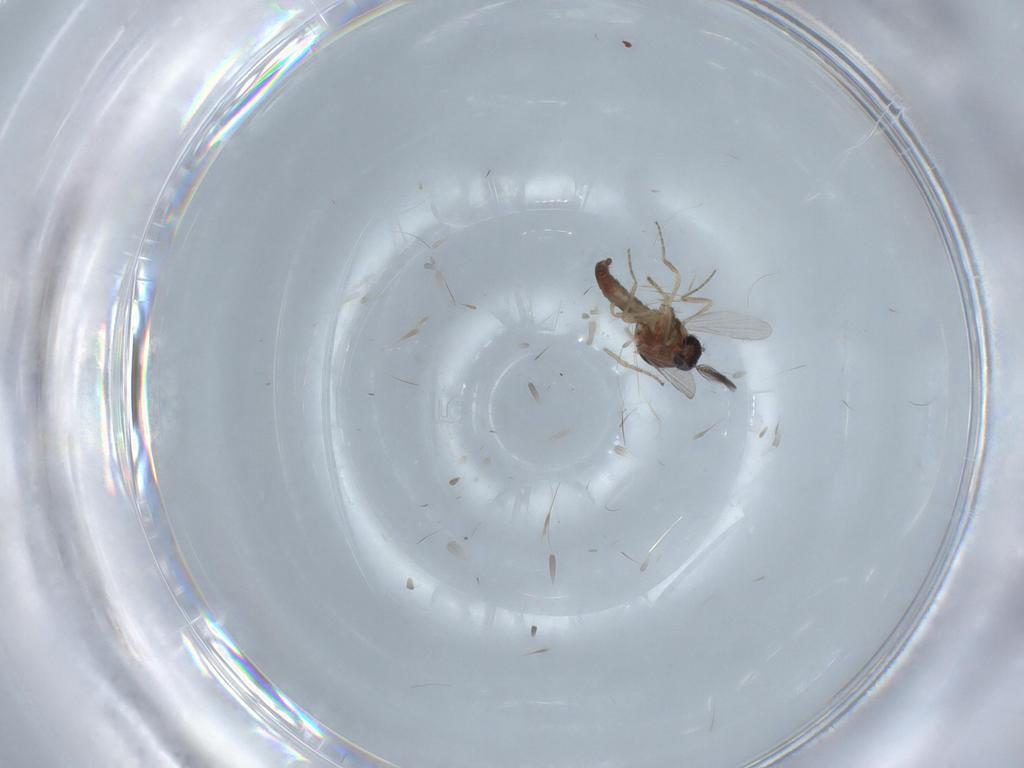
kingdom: Animalia
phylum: Arthropoda
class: Insecta
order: Diptera
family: Ceratopogonidae
